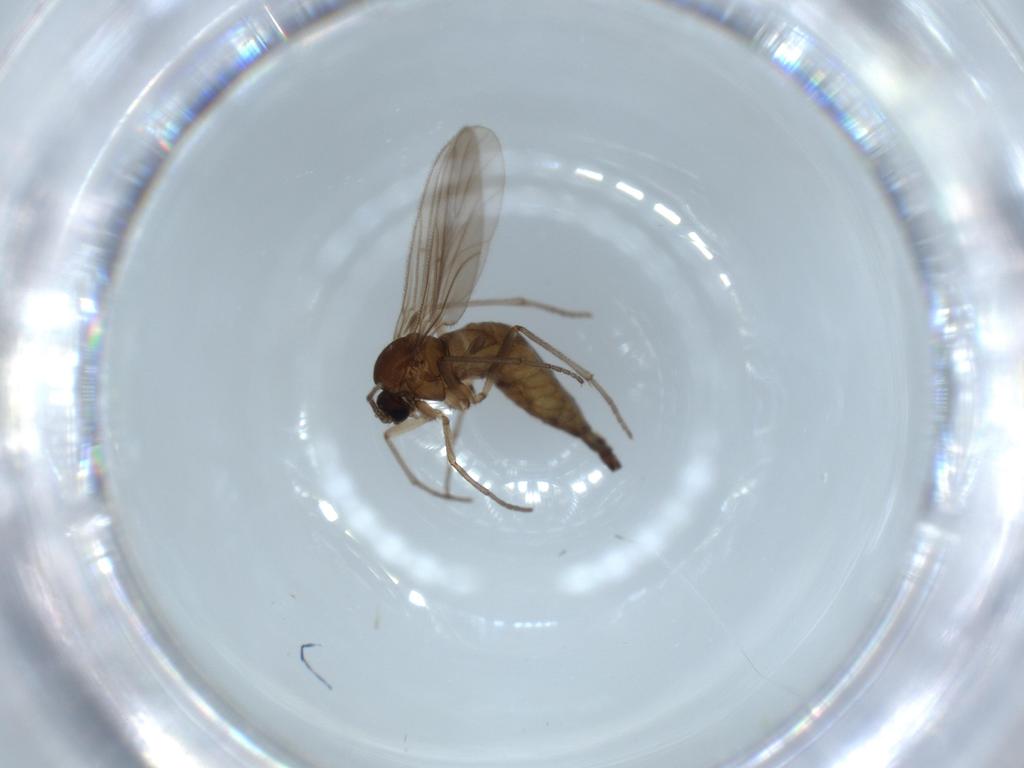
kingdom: Animalia
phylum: Arthropoda
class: Insecta
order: Diptera
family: Sciaridae
